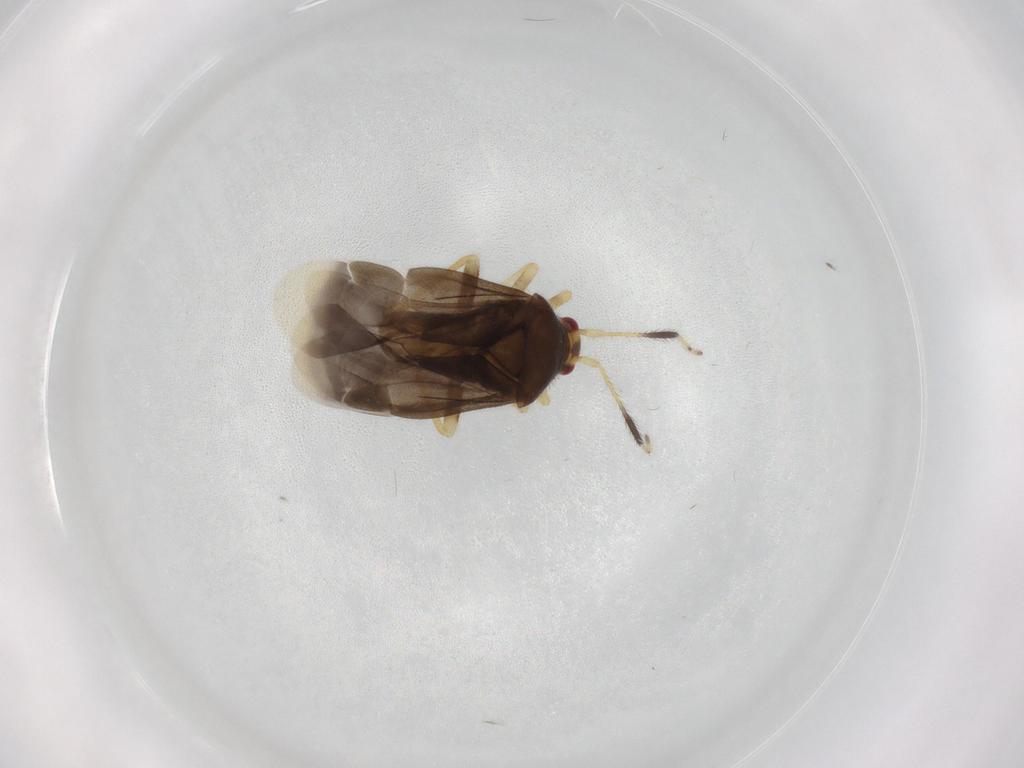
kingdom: Animalia
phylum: Arthropoda
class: Insecta
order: Hemiptera
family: Miridae
